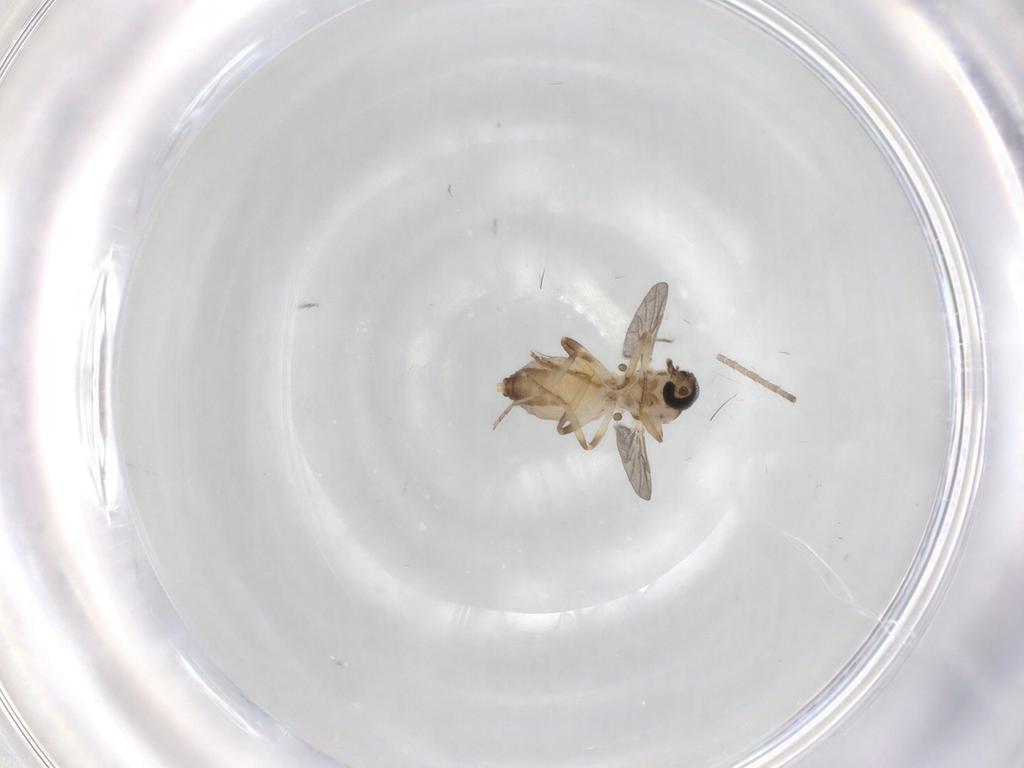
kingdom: Animalia
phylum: Arthropoda
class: Insecta
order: Diptera
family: Ceratopogonidae
